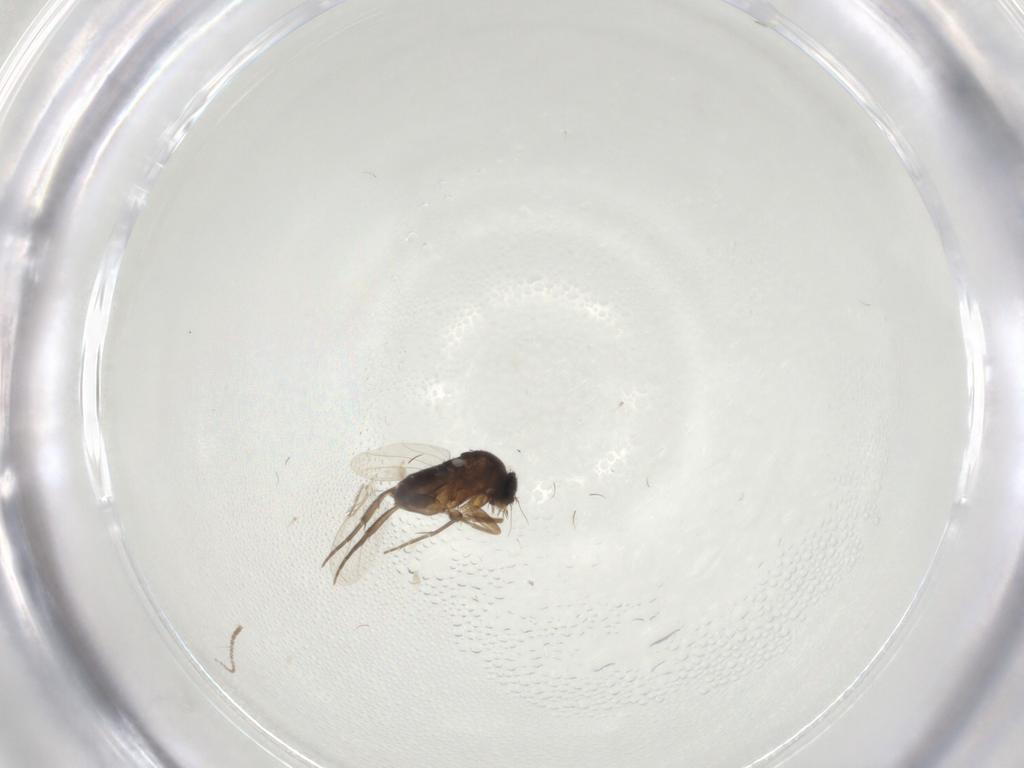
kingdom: Animalia
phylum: Arthropoda
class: Insecta
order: Diptera
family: Phoridae
